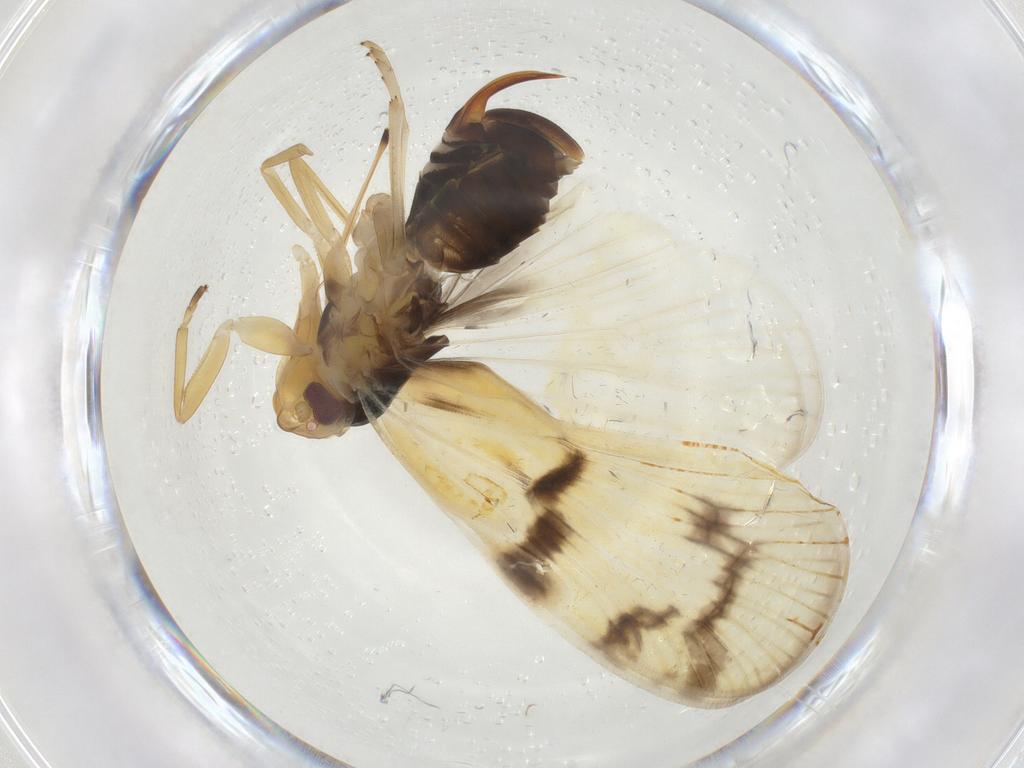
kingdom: Animalia
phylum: Arthropoda
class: Insecta
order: Hemiptera
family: Cixiidae
